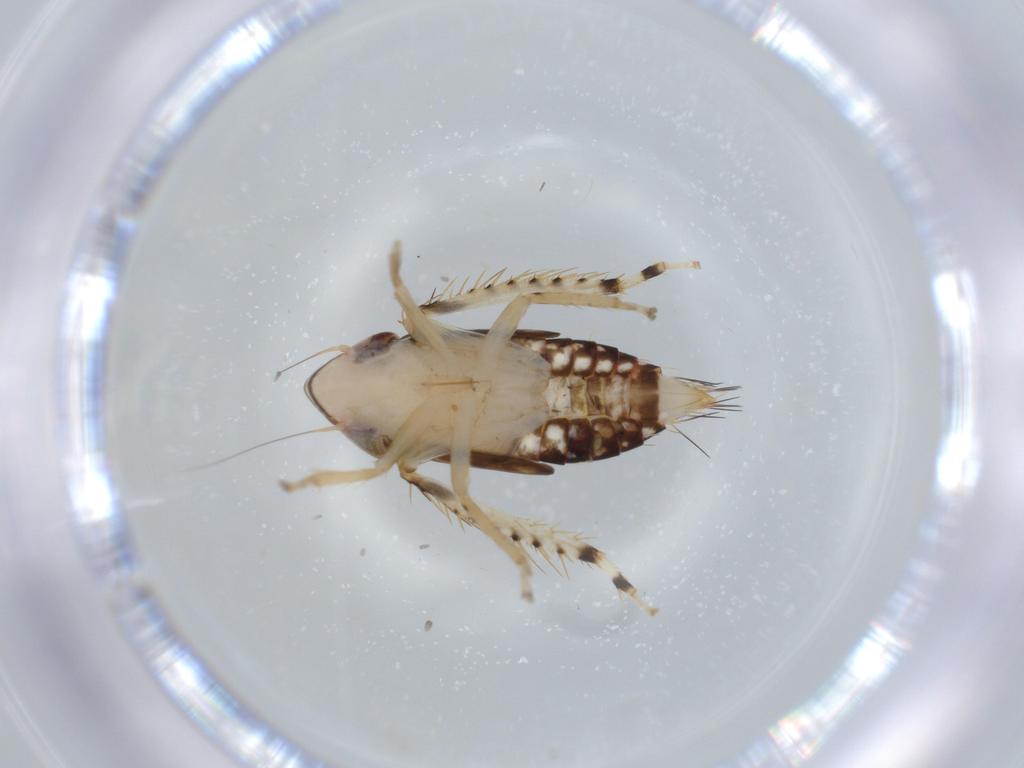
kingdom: Animalia
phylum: Arthropoda
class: Insecta
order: Hemiptera
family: Cicadellidae
